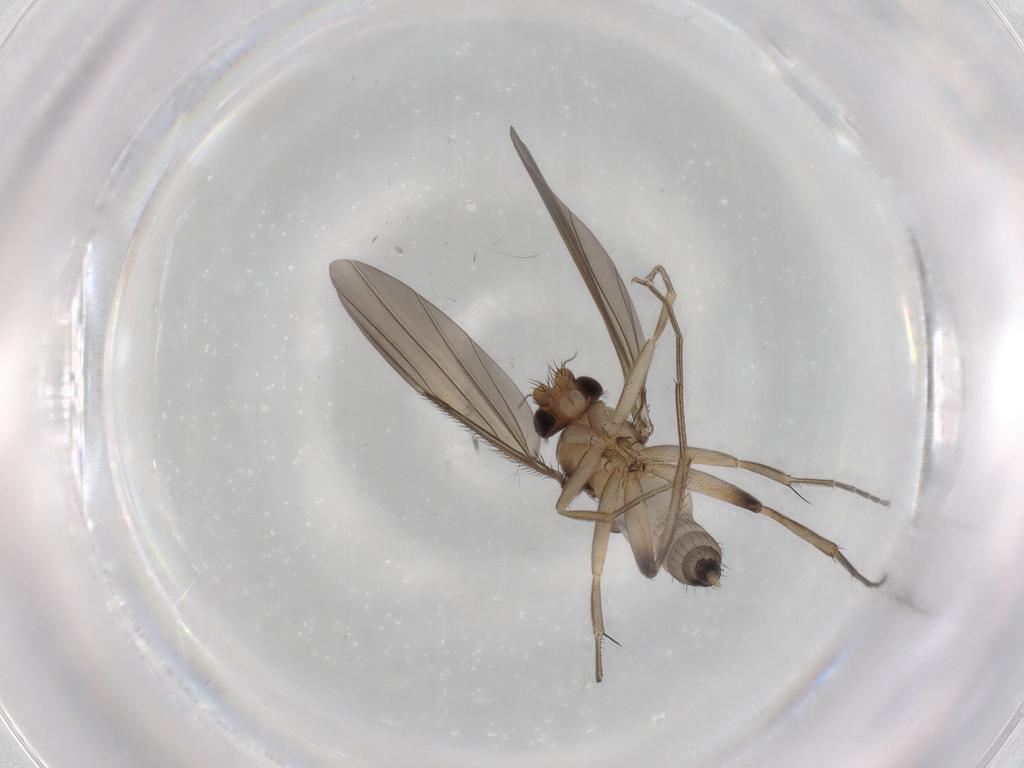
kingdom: Animalia
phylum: Arthropoda
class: Insecta
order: Diptera
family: Phoridae
